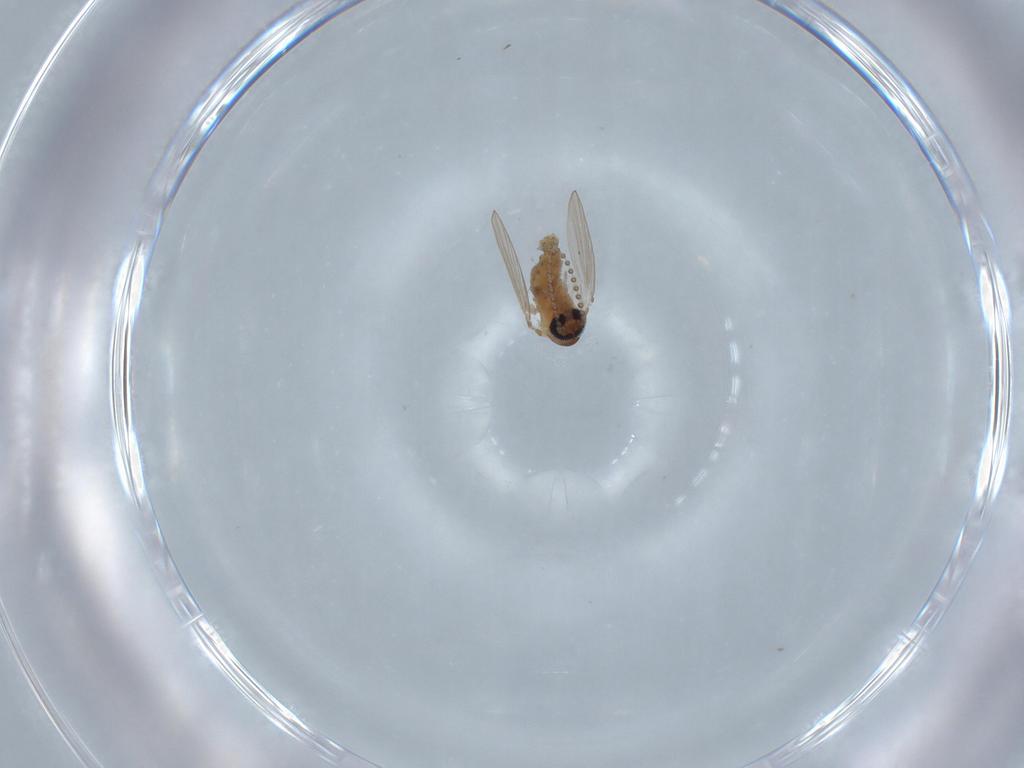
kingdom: Animalia
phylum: Arthropoda
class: Insecta
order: Diptera
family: Psychodidae
